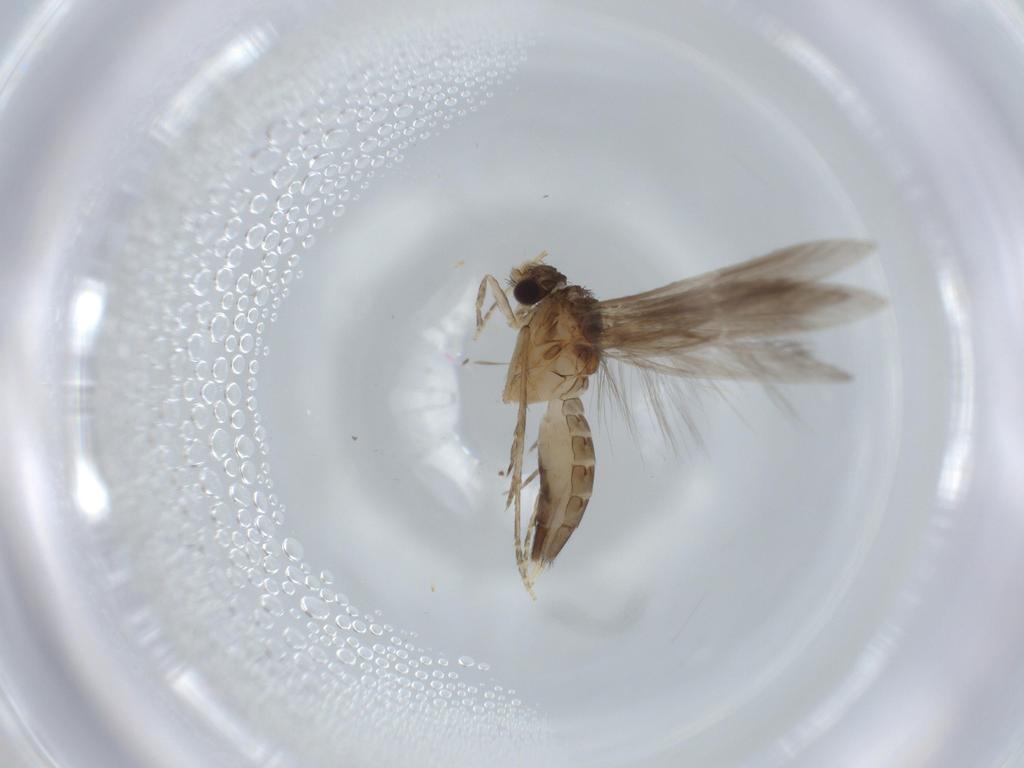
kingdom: Animalia
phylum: Arthropoda
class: Insecta
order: Trichoptera
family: Hydroptilidae
